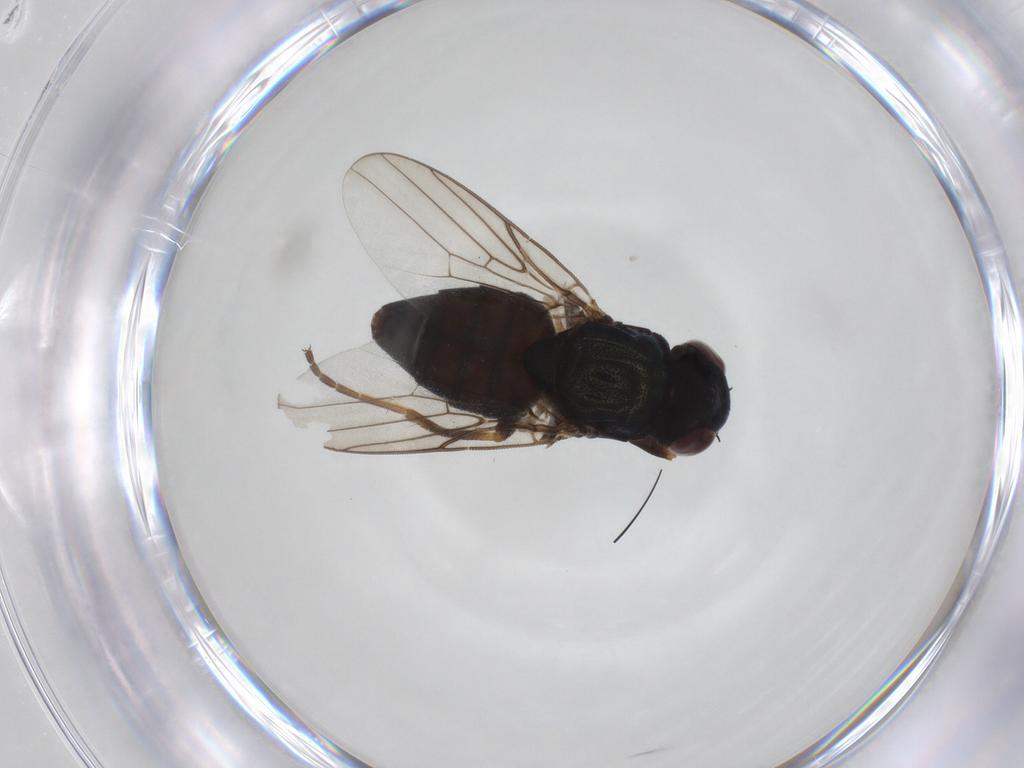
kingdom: Animalia
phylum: Arthropoda
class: Insecta
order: Diptera
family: Chloropidae
